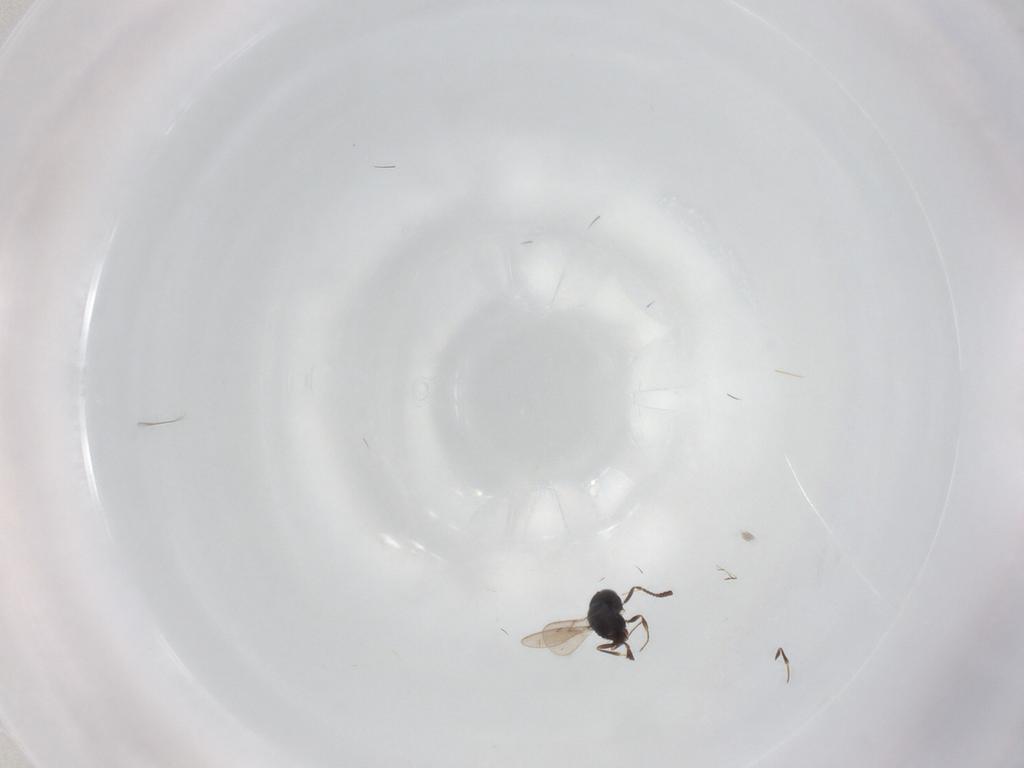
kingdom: Animalia
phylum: Arthropoda
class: Insecta
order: Hymenoptera
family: Scelionidae
